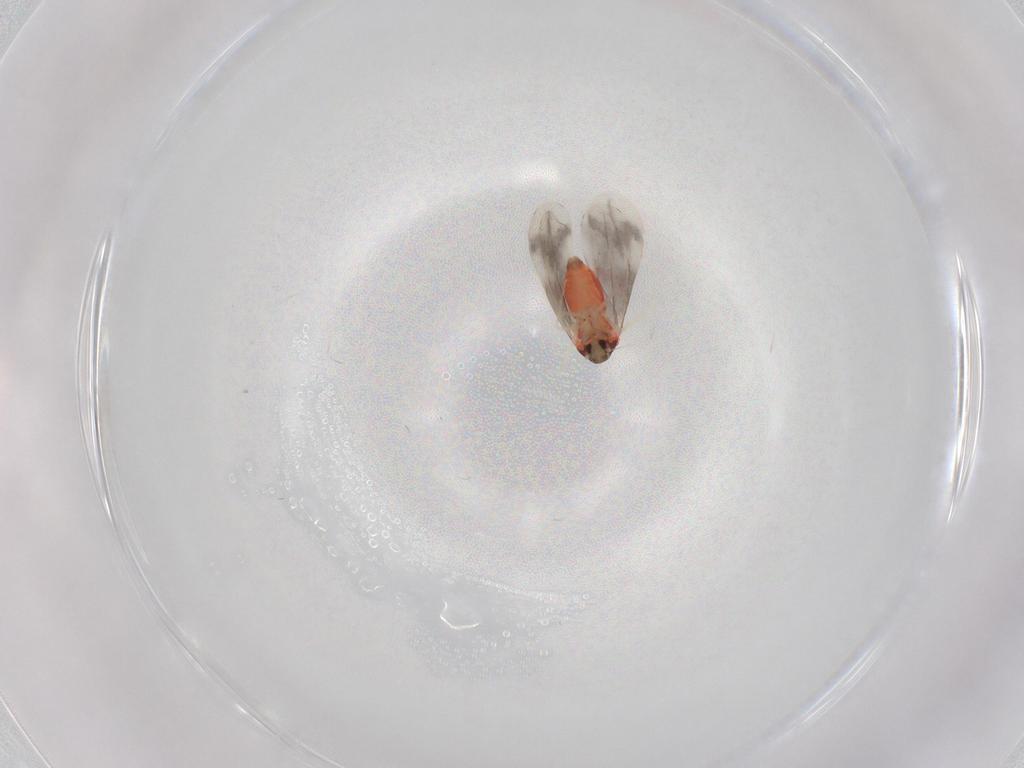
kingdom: Animalia
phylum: Arthropoda
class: Insecta
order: Hemiptera
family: Aleyrodidae
